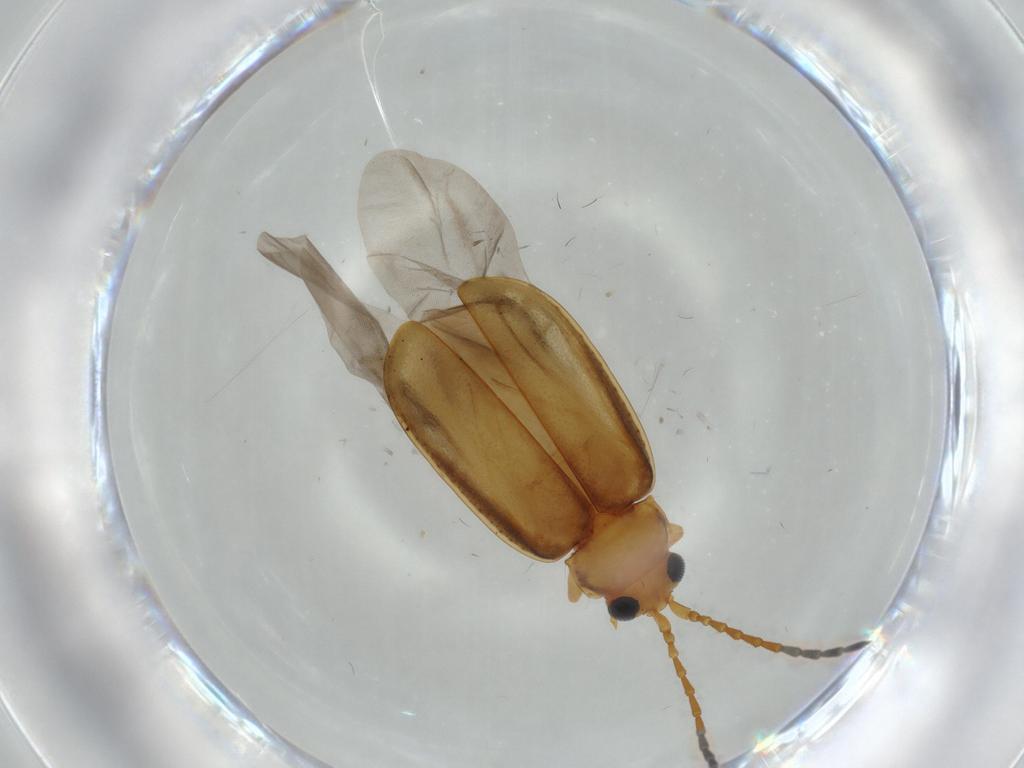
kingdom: Animalia
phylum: Arthropoda
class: Insecta
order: Coleoptera
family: Chrysomelidae
